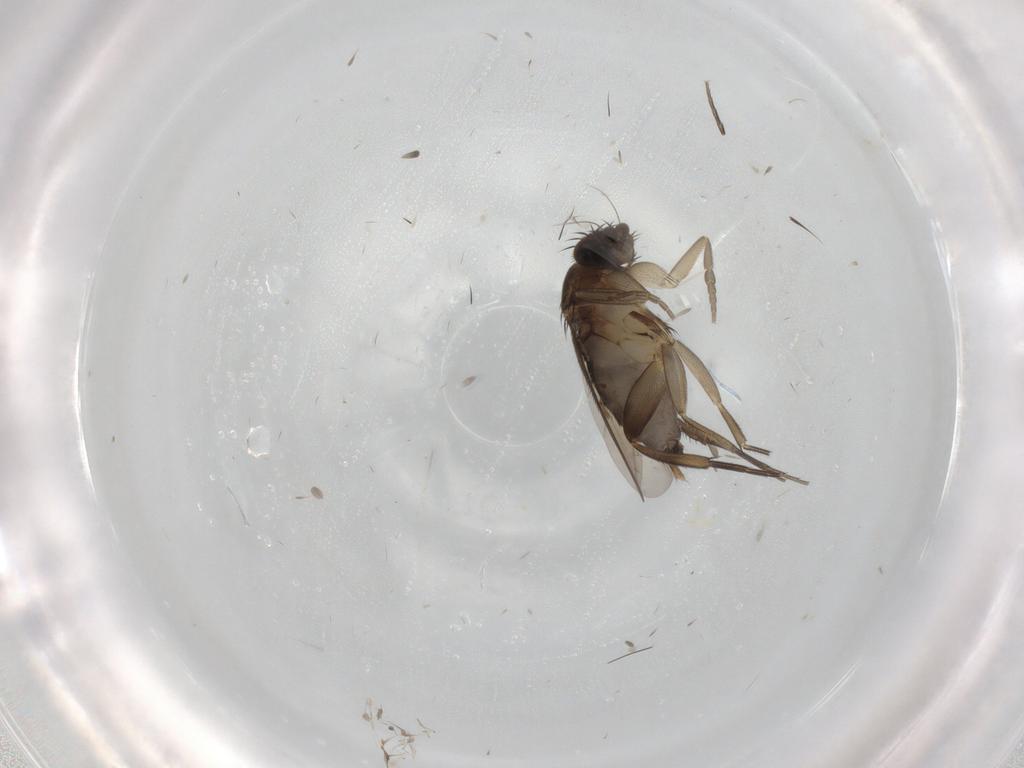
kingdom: Animalia
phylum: Arthropoda
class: Insecta
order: Diptera
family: Phoridae
